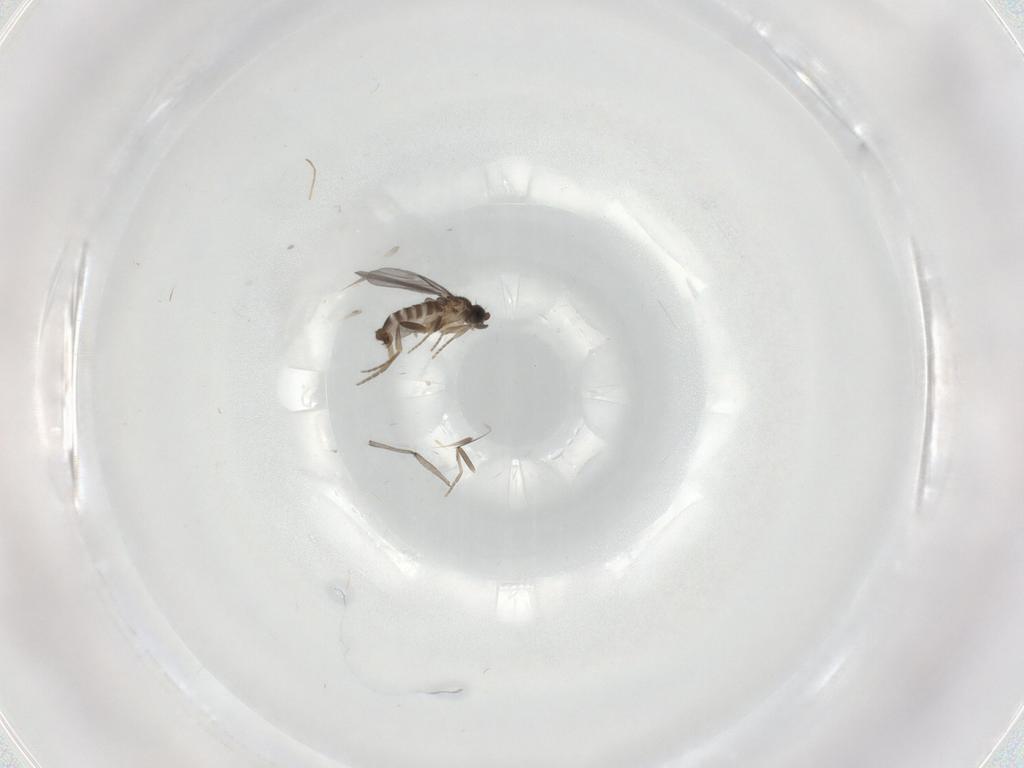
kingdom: Animalia
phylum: Arthropoda
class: Insecta
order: Diptera
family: Sciaridae
